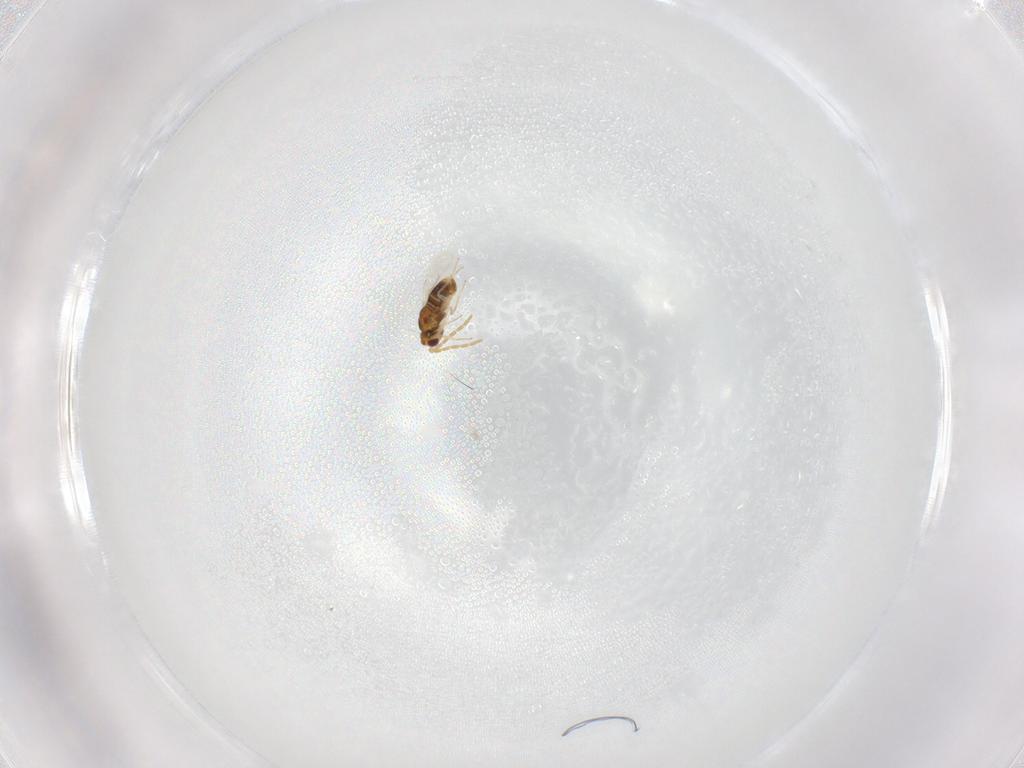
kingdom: Animalia
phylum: Arthropoda
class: Insecta
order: Hymenoptera
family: Aphelinidae
